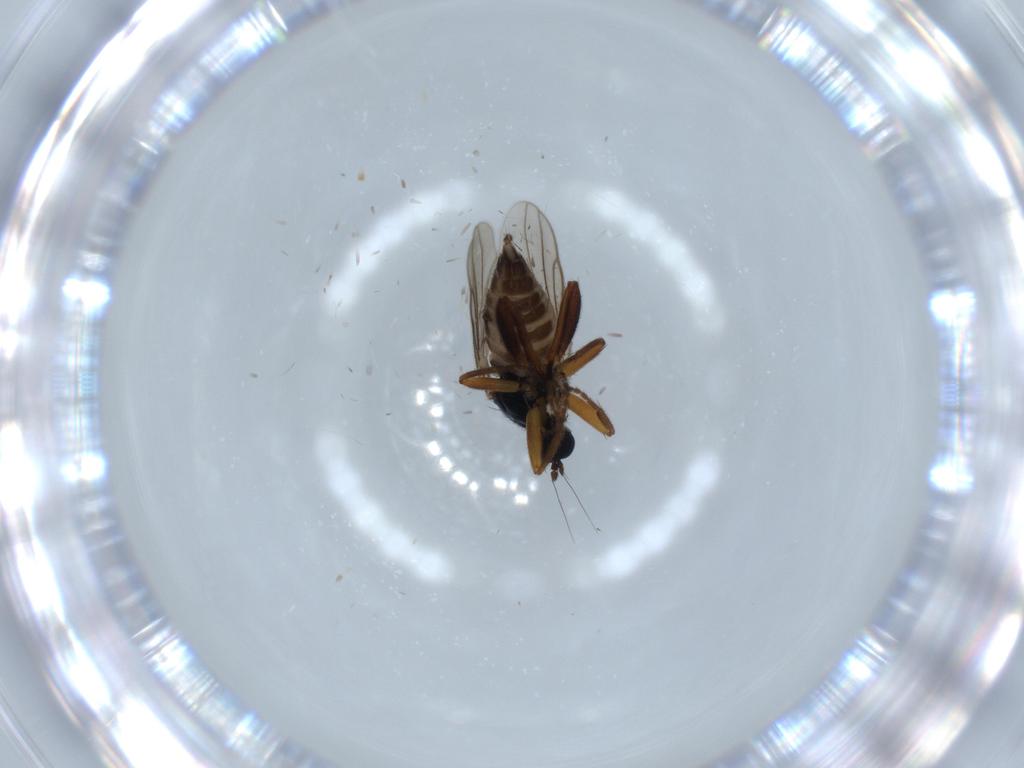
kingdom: Animalia
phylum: Arthropoda
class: Insecta
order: Diptera
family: Hybotidae
